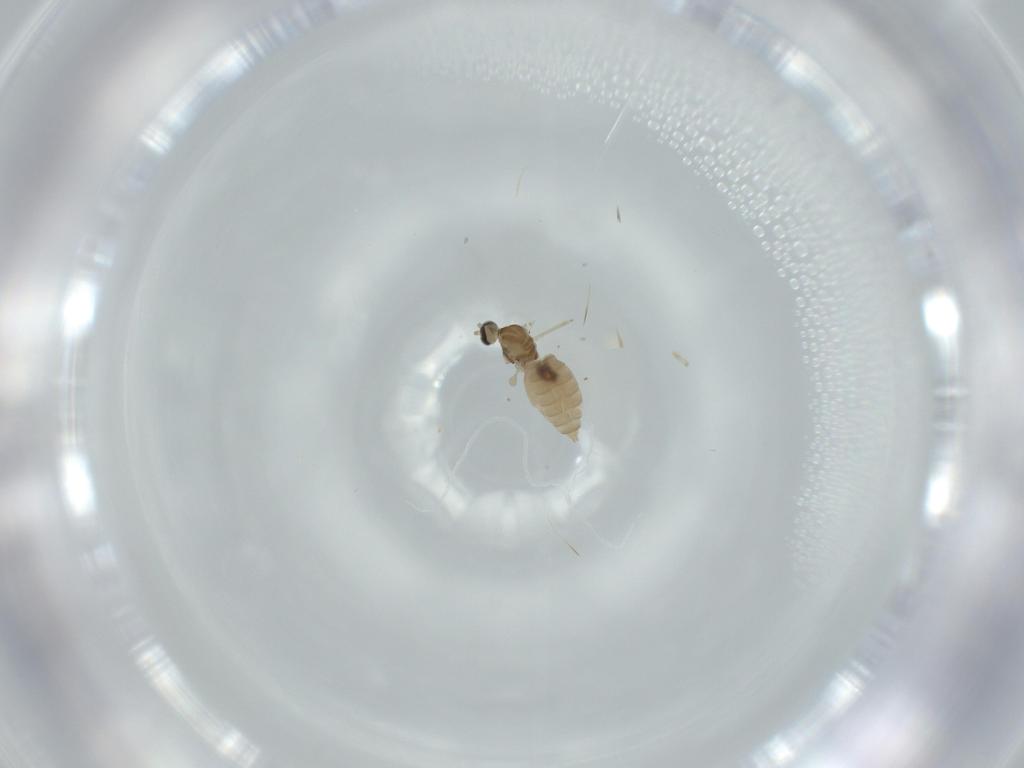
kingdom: Animalia
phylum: Arthropoda
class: Insecta
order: Diptera
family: Cecidomyiidae
